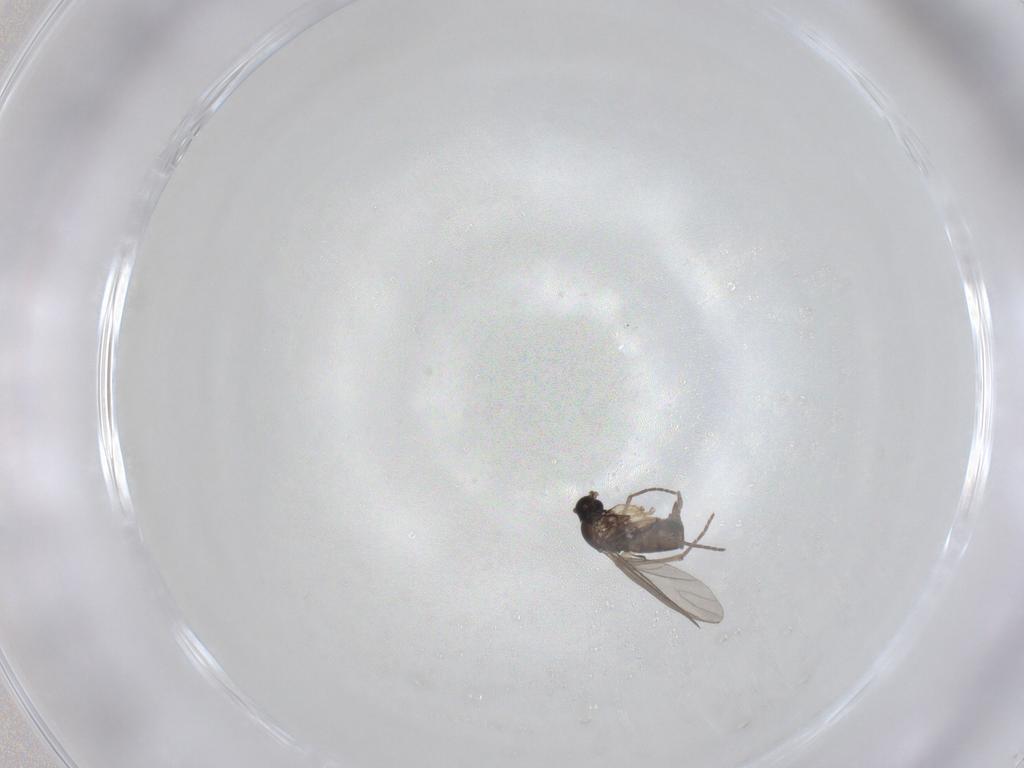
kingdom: Animalia
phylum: Arthropoda
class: Insecta
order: Diptera
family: Sciaridae
